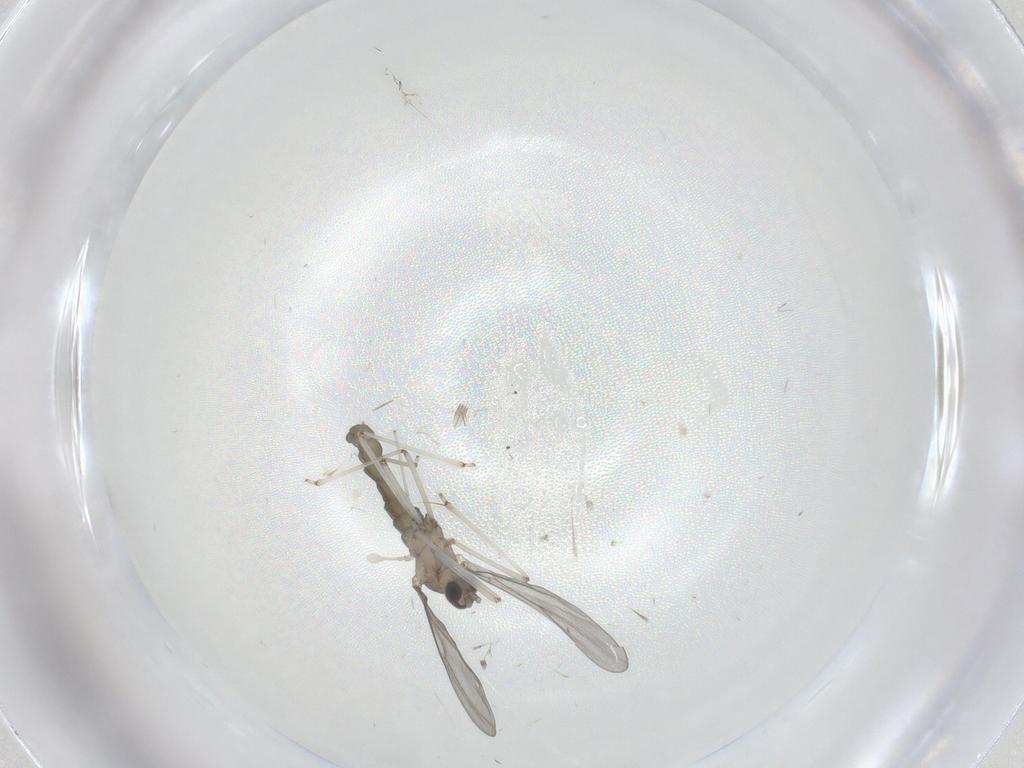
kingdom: Animalia
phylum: Arthropoda
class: Insecta
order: Diptera
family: Cecidomyiidae
